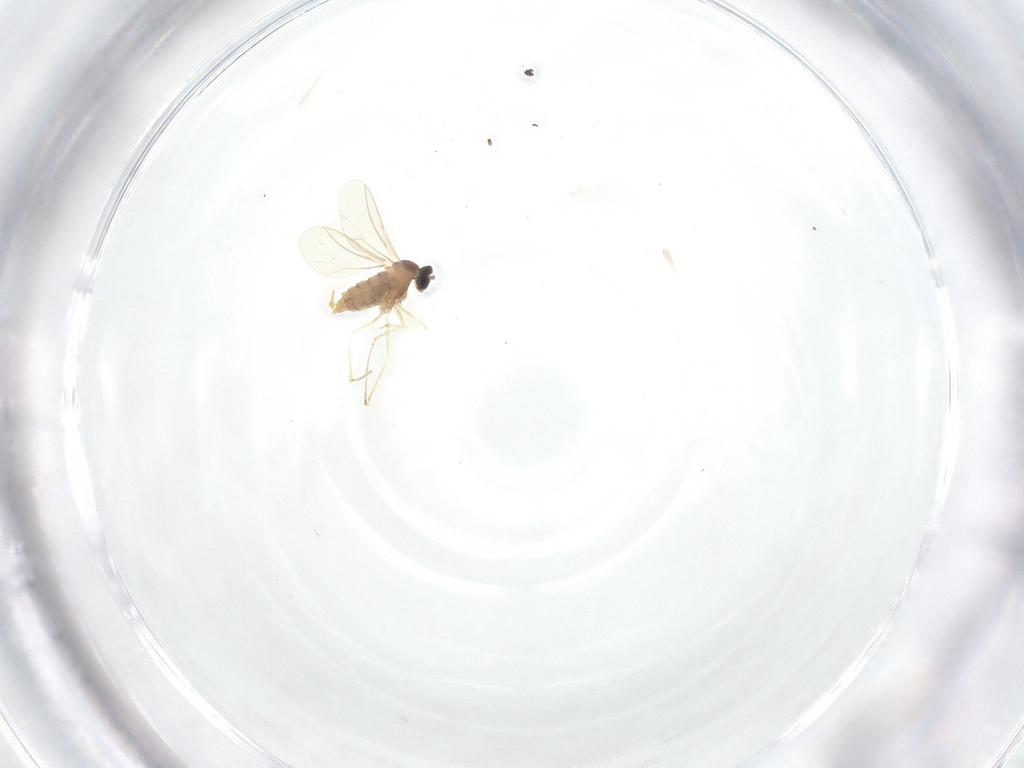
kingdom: Animalia
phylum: Arthropoda
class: Insecta
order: Diptera
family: Cecidomyiidae
